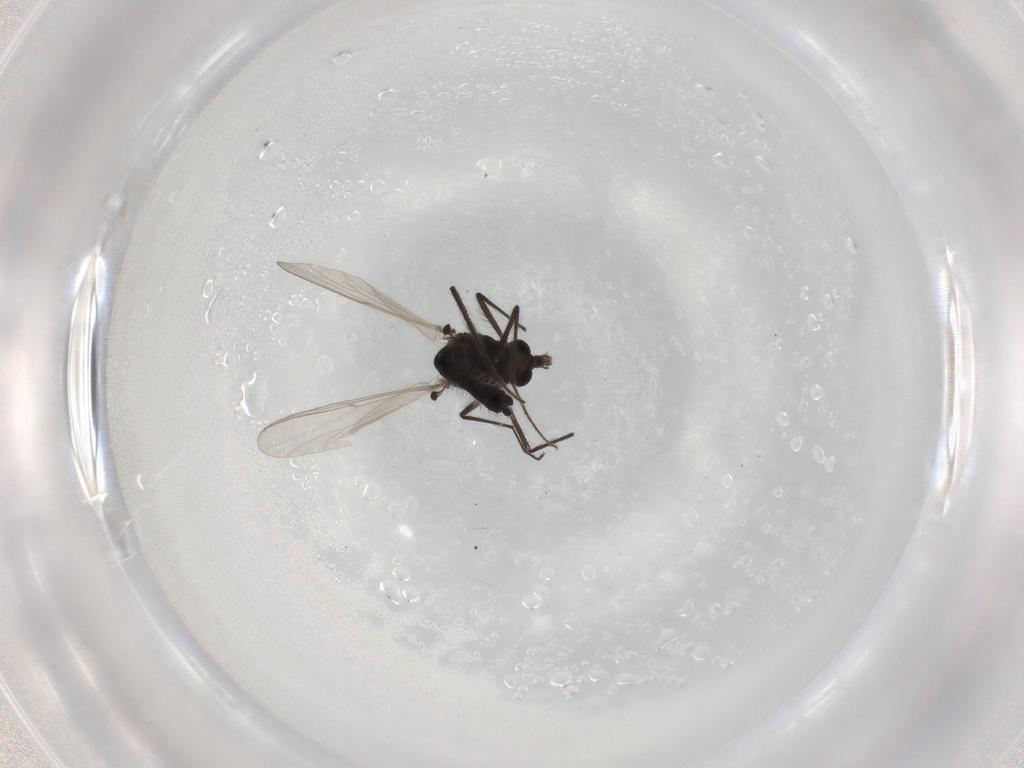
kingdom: Animalia
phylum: Arthropoda
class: Insecta
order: Diptera
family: Chironomidae
